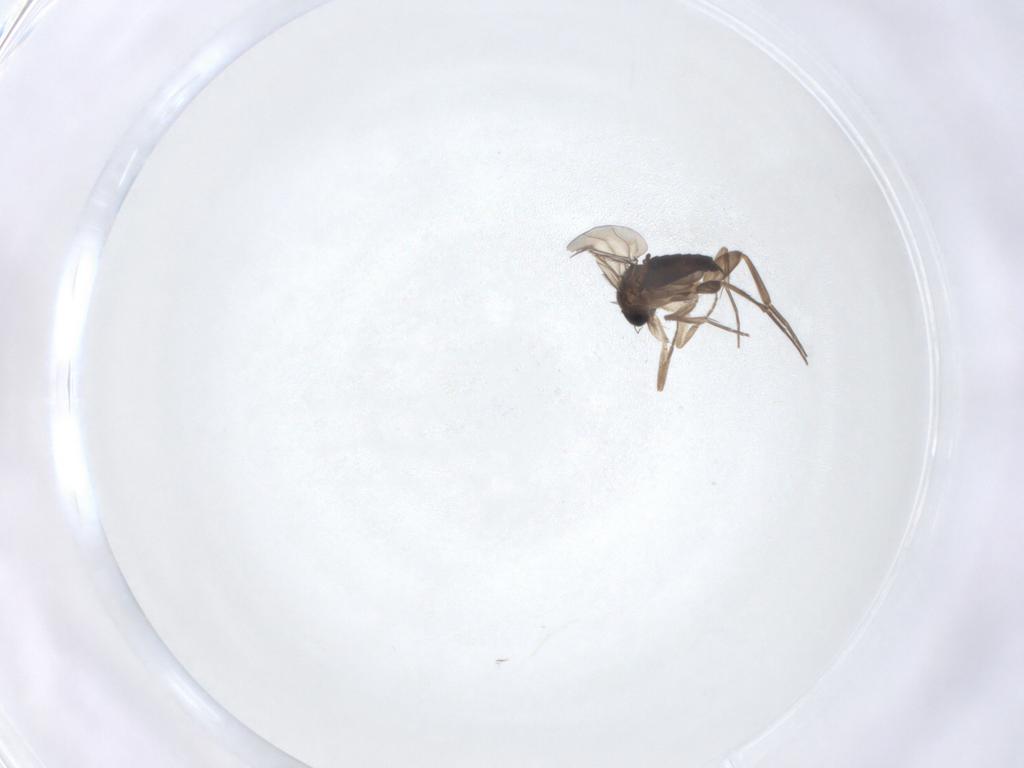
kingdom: Animalia
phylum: Arthropoda
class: Insecta
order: Diptera
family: Phoridae
